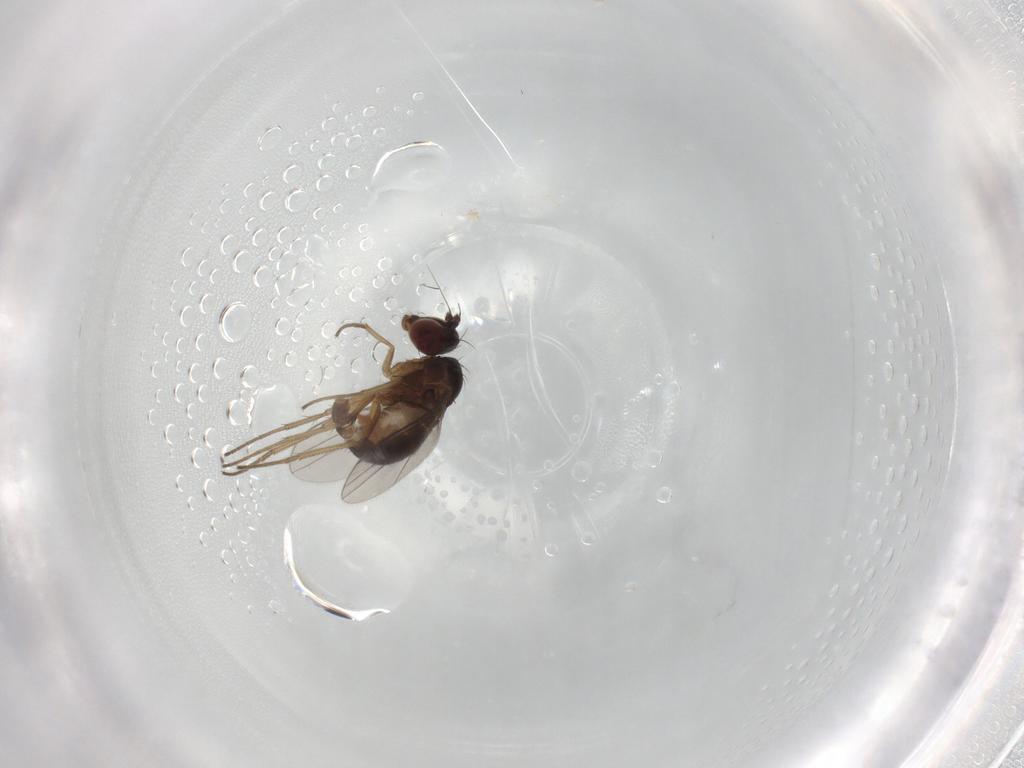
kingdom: Animalia
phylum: Arthropoda
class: Insecta
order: Diptera
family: Dolichopodidae
